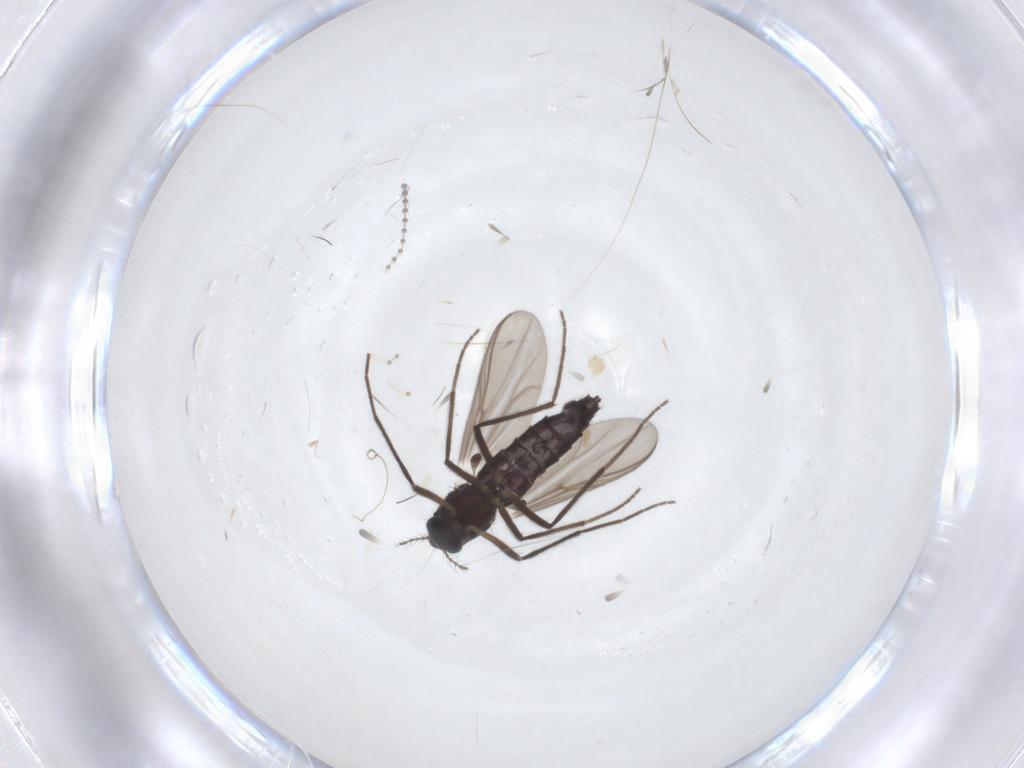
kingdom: Animalia
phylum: Arthropoda
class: Insecta
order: Diptera
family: Chironomidae
